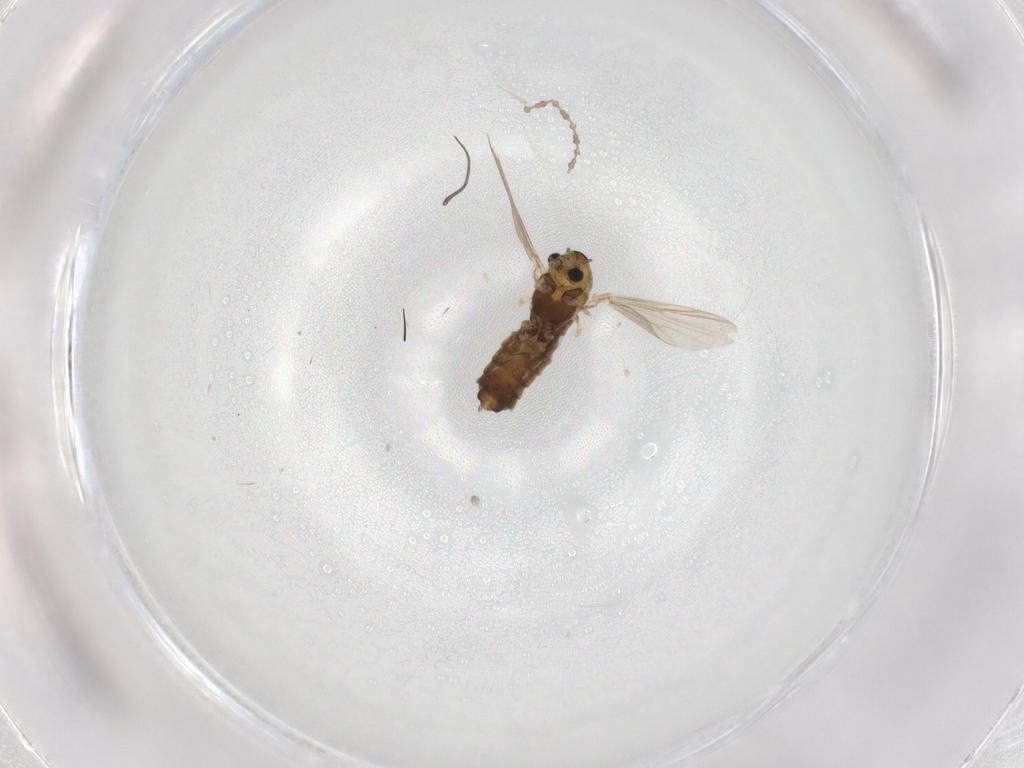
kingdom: Animalia
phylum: Arthropoda
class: Insecta
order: Diptera
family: Chironomidae
